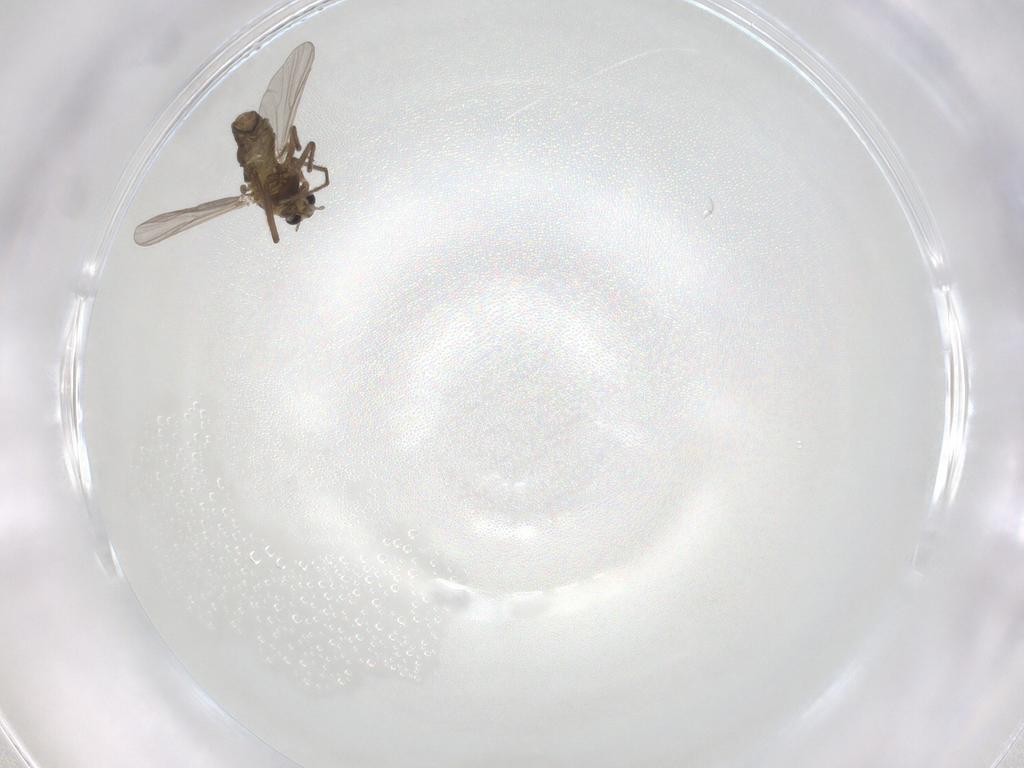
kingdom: Animalia
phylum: Arthropoda
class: Insecta
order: Diptera
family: Chironomidae
